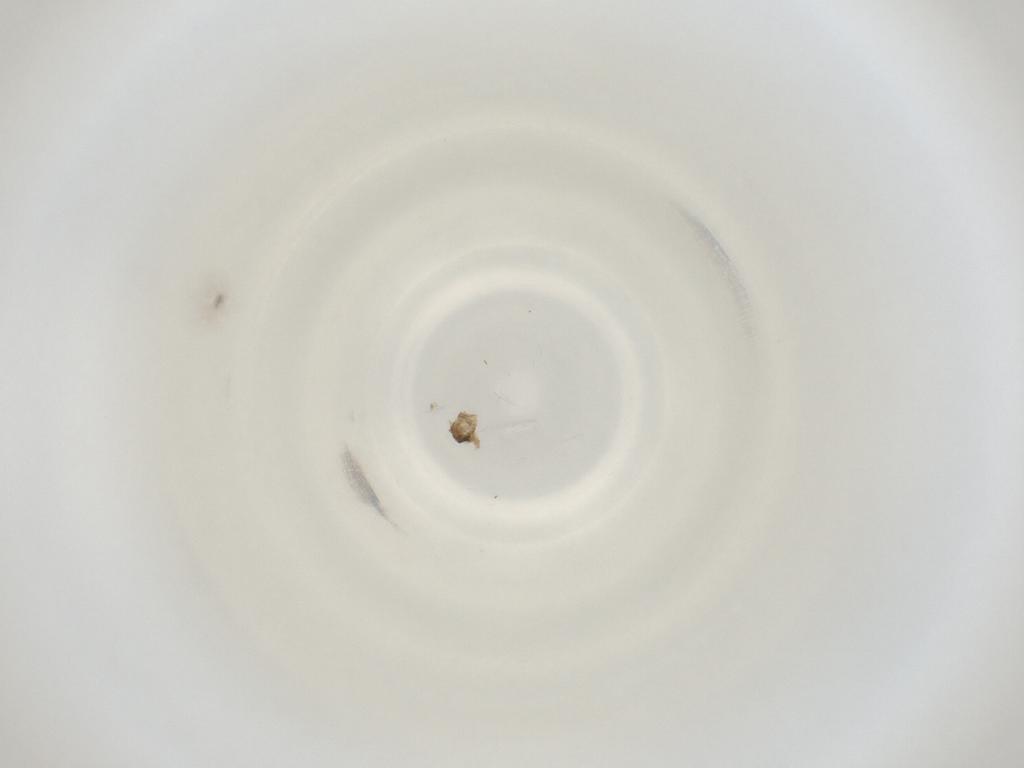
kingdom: Animalia
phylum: Arthropoda
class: Insecta
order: Diptera
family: Cecidomyiidae
